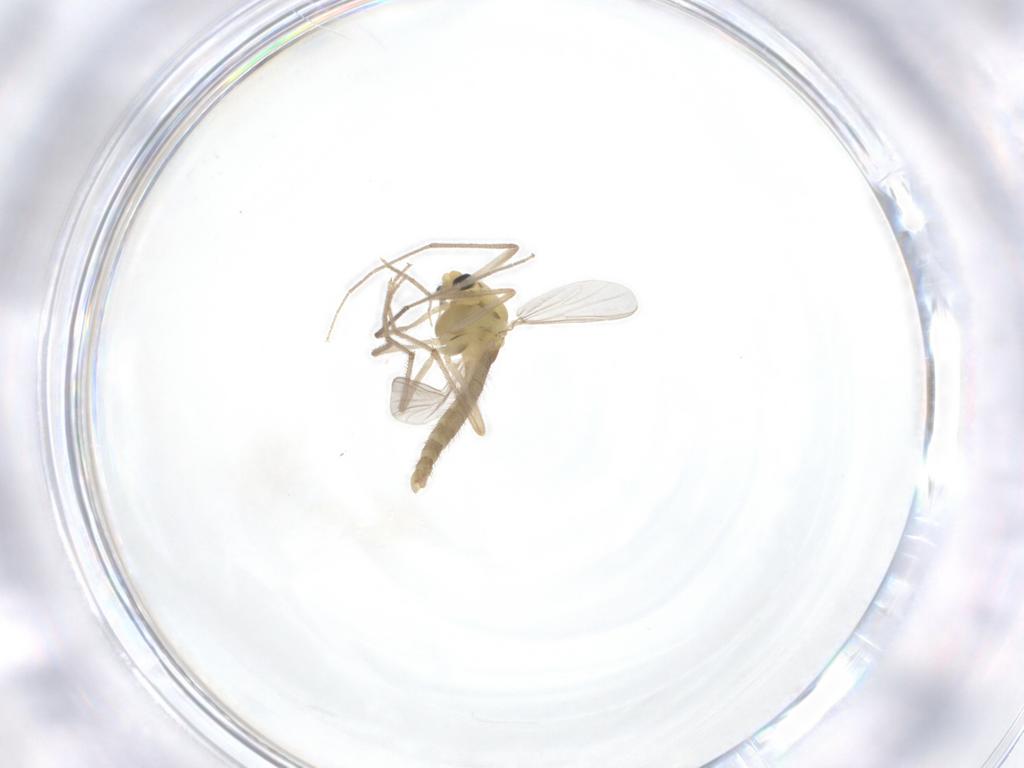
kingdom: Animalia
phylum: Arthropoda
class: Insecta
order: Diptera
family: Chironomidae
